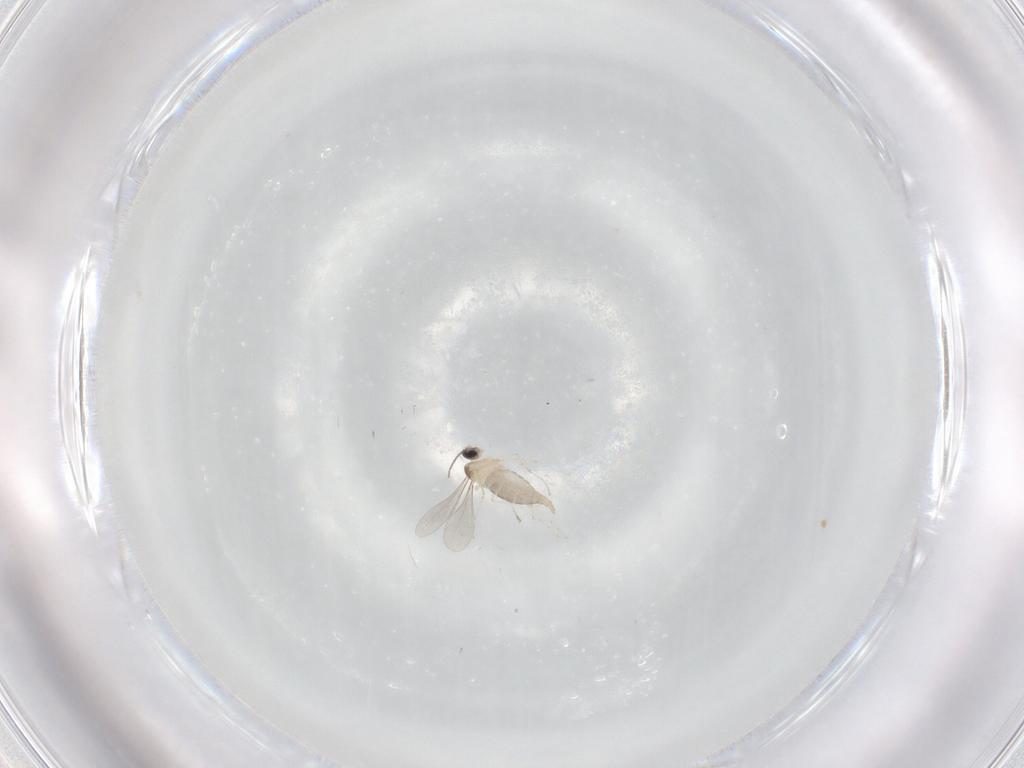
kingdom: Animalia
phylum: Arthropoda
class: Insecta
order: Diptera
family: Cecidomyiidae
